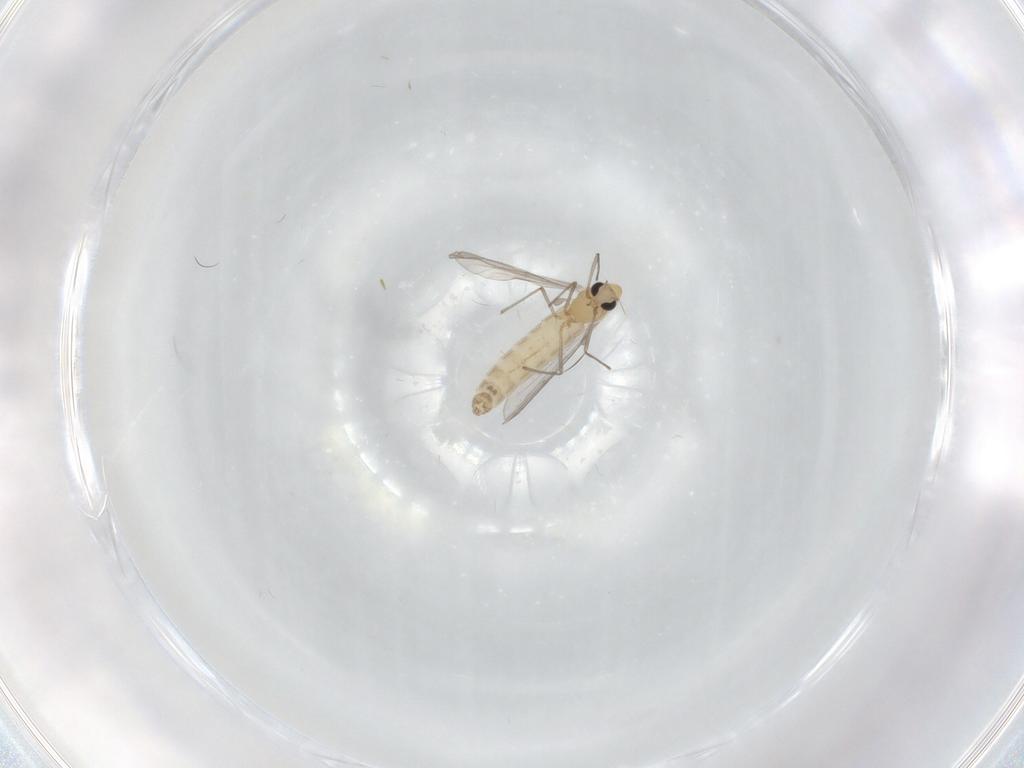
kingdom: Animalia
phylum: Arthropoda
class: Insecta
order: Diptera
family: Chironomidae
